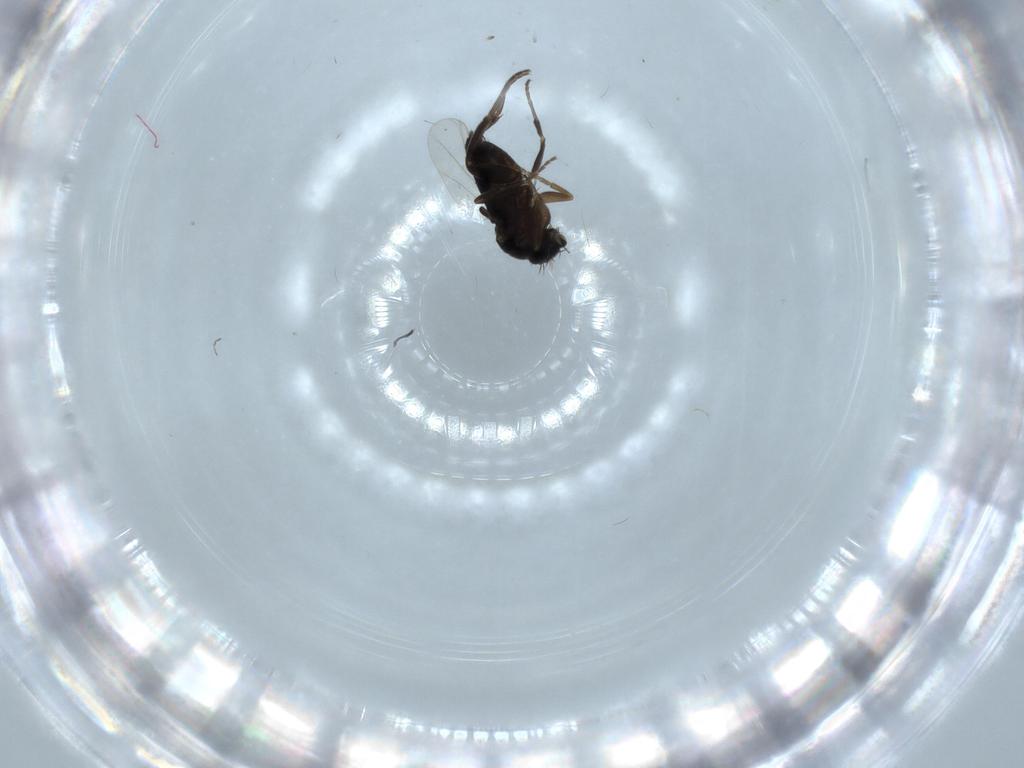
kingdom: Animalia
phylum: Arthropoda
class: Insecta
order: Diptera
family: Phoridae
